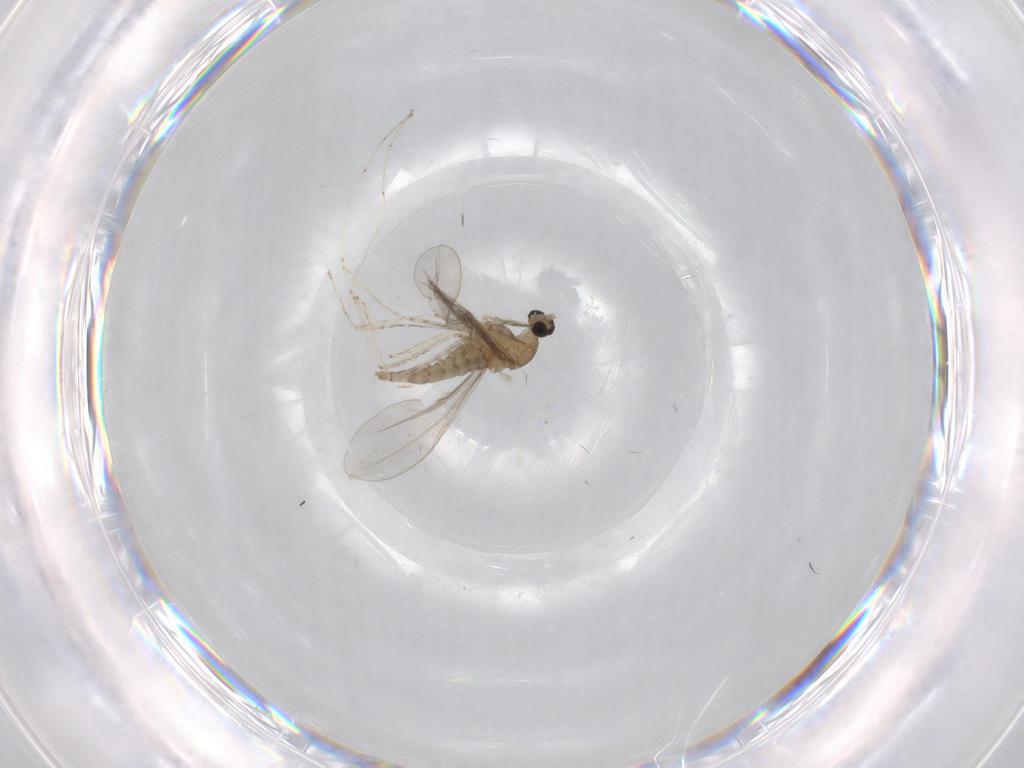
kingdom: Animalia
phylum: Arthropoda
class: Insecta
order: Diptera
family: Cecidomyiidae
